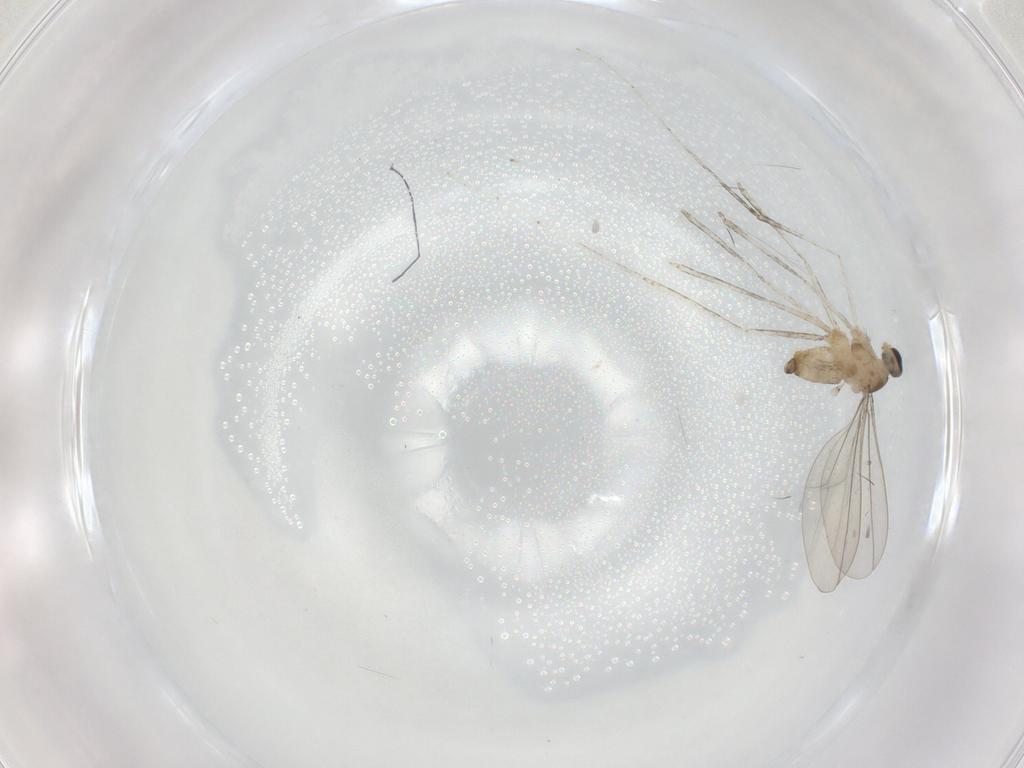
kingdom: Animalia
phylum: Arthropoda
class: Insecta
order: Diptera
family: Cecidomyiidae
